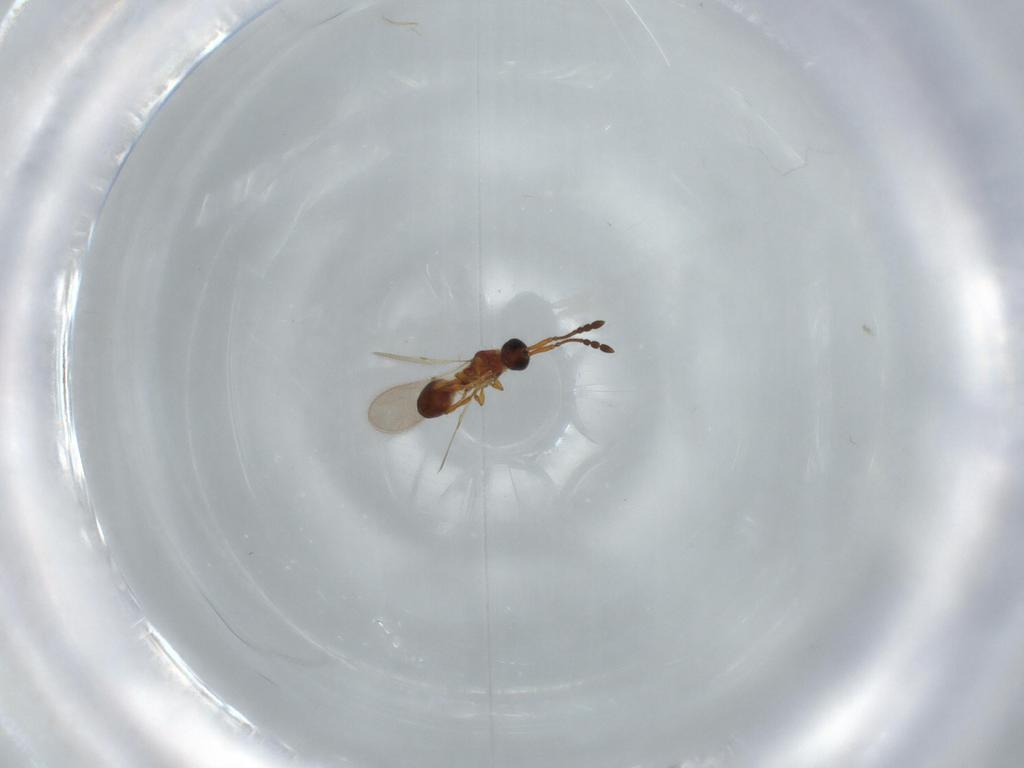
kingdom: Animalia
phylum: Arthropoda
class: Insecta
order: Hymenoptera
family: Diapriidae
